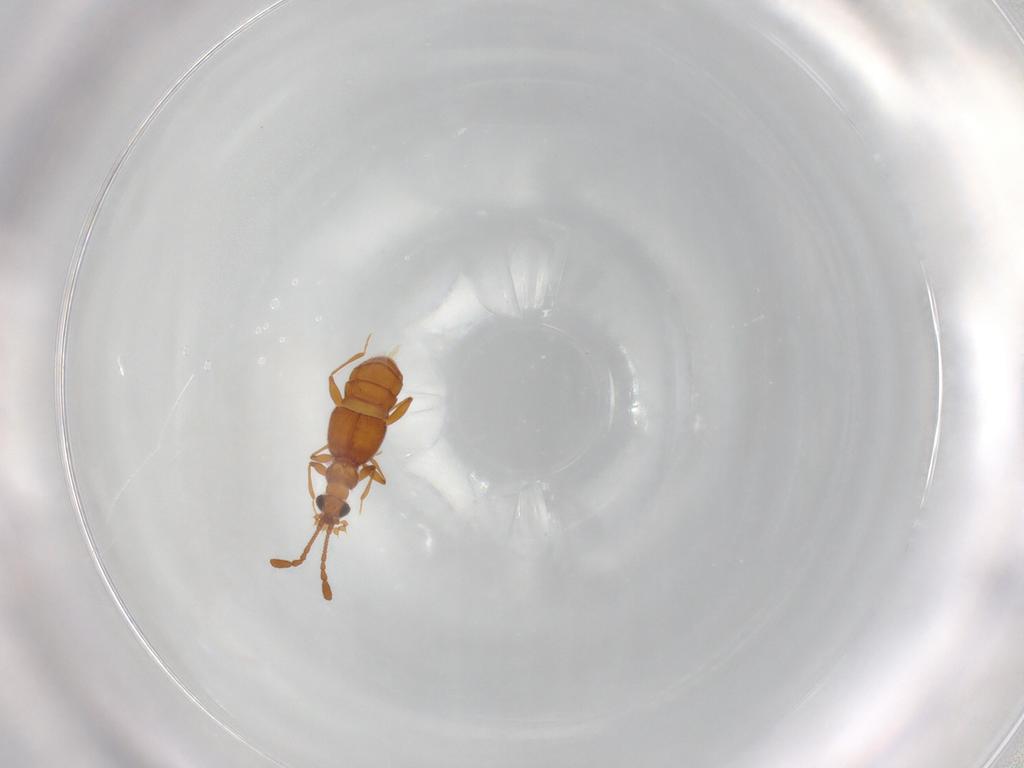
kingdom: Animalia
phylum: Arthropoda
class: Insecta
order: Coleoptera
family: Staphylinidae
